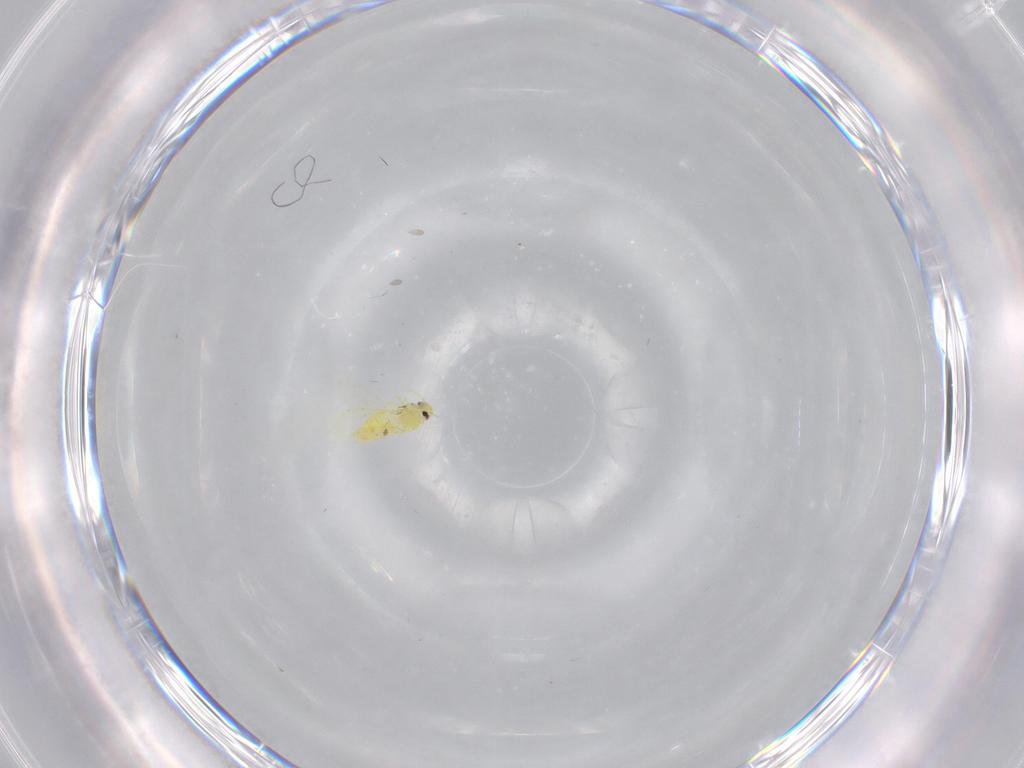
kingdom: Animalia
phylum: Arthropoda
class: Insecta
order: Hemiptera
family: Aleyrodidae
